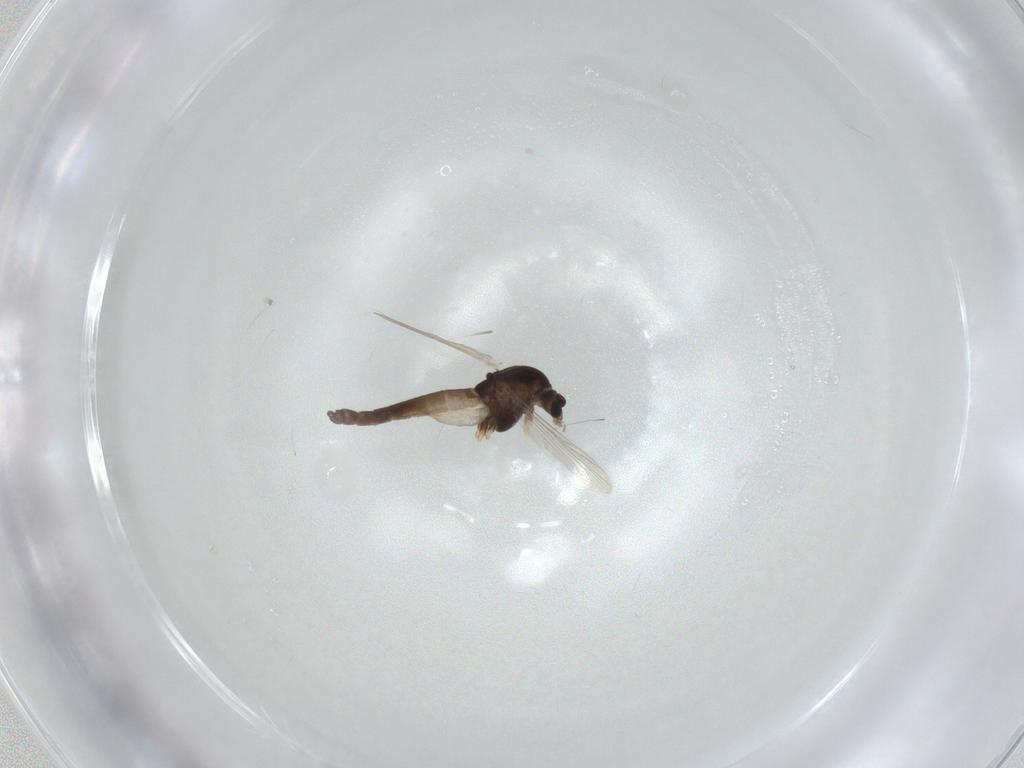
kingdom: Animalia
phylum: Arthropoda
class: Insecta
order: Diptera
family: Chironomidae
